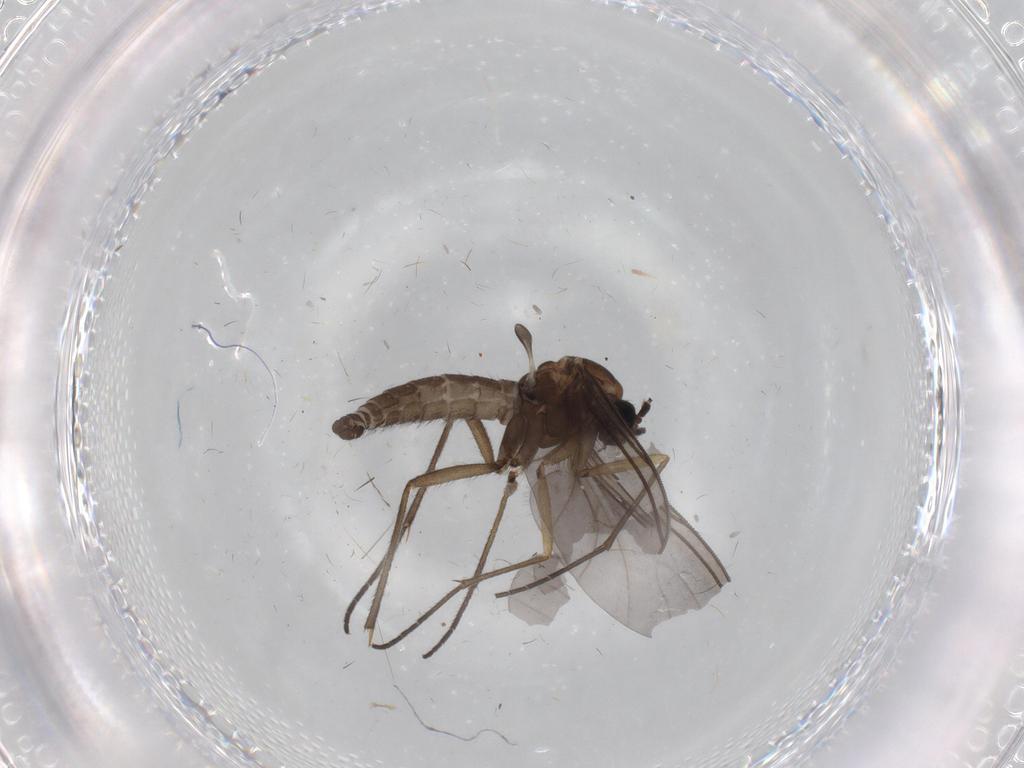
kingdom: Animalia
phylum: Arthropoda
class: Insecta
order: Diptera
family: Sciaridae
